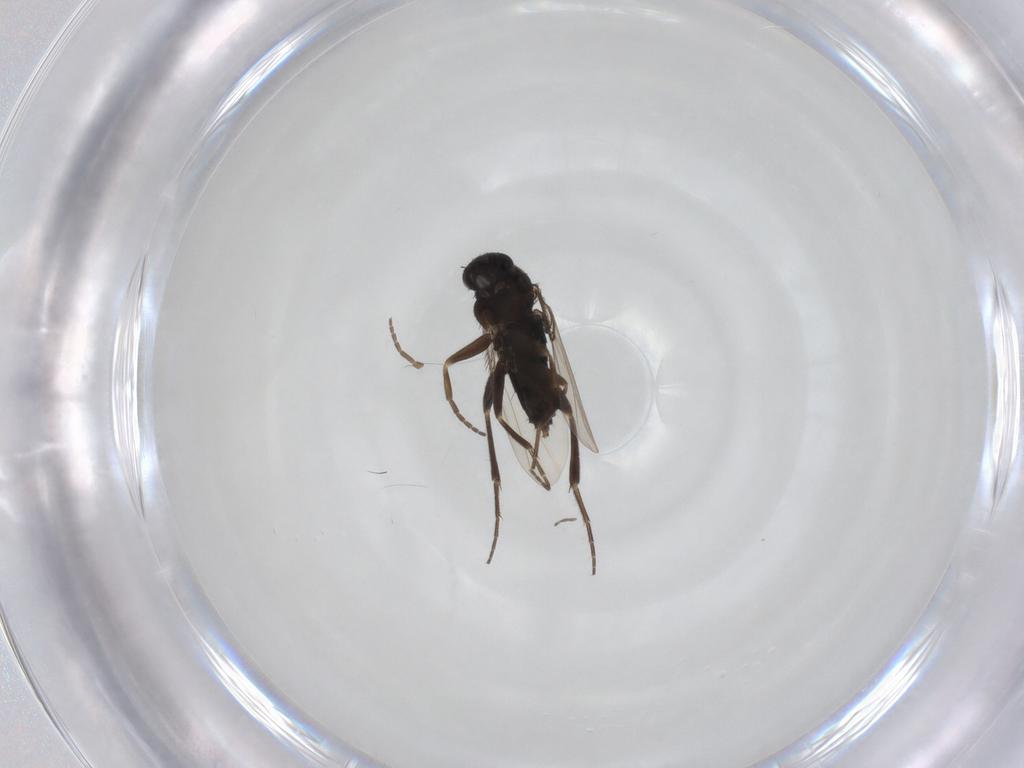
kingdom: Animalia
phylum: Arthropoda
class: Insecta
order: Diptera
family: Phoridae
